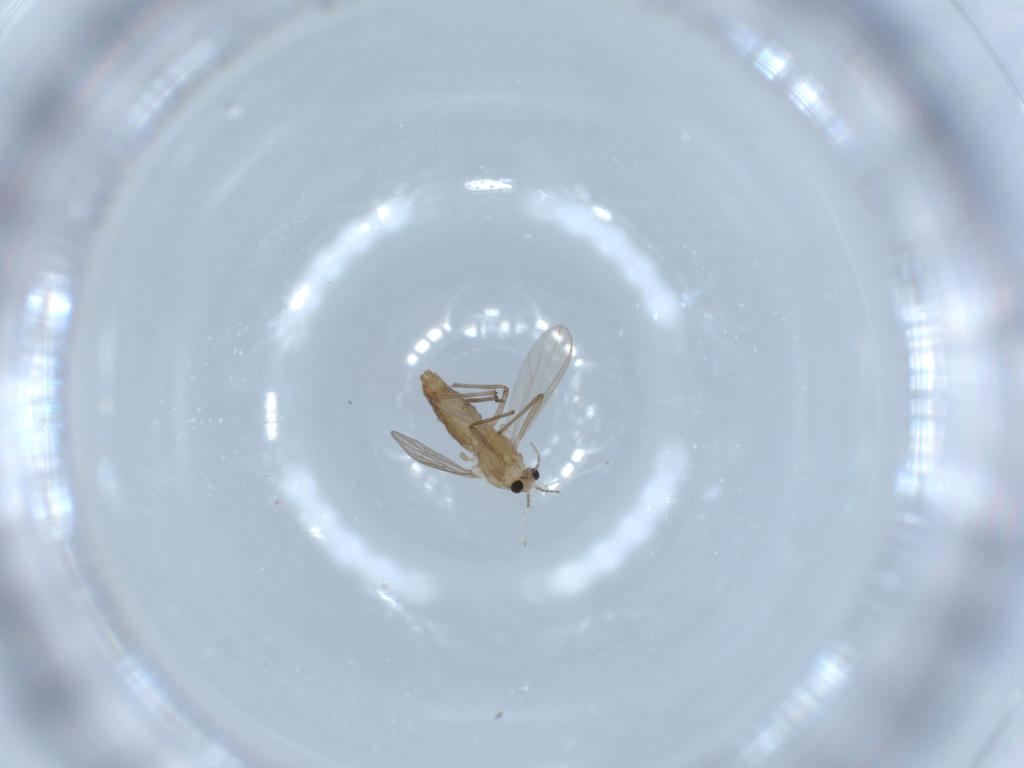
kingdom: Animalia
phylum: Arthropoda
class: Insecta
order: Diptera
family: Chironomidae
